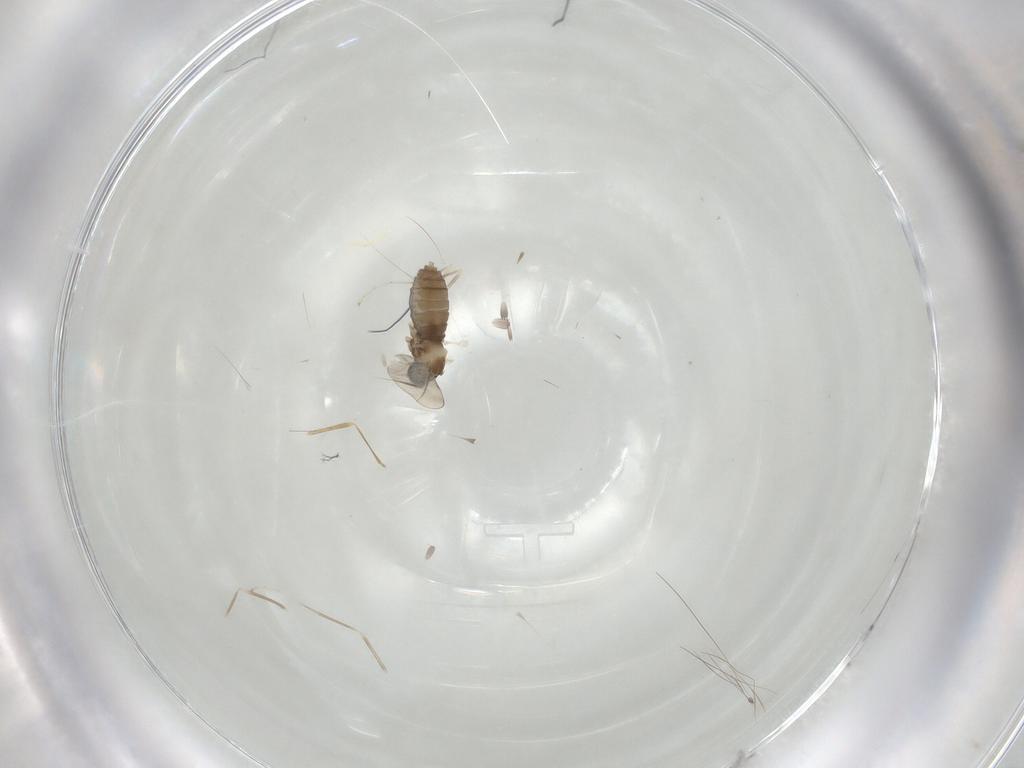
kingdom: Animalia
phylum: Arthropoda
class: Insecta
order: Diptera
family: Cecidomyiidae
